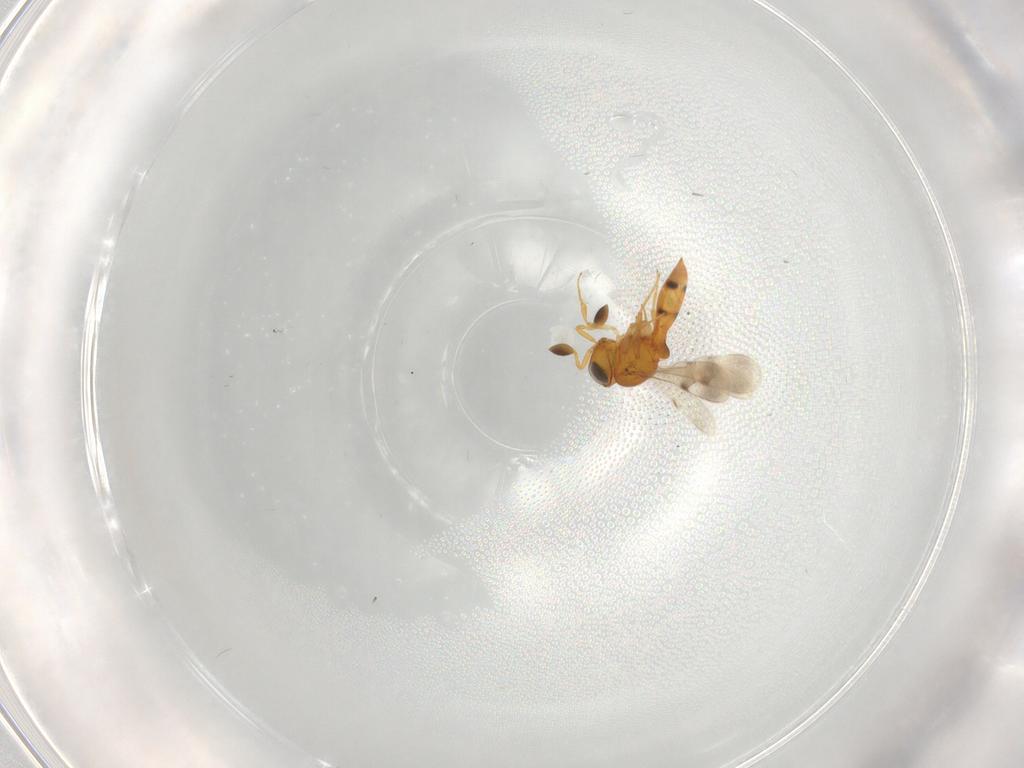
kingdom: Animalia
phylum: Arthropoda
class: Insecta
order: Hymenoptera
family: Scelionidae
